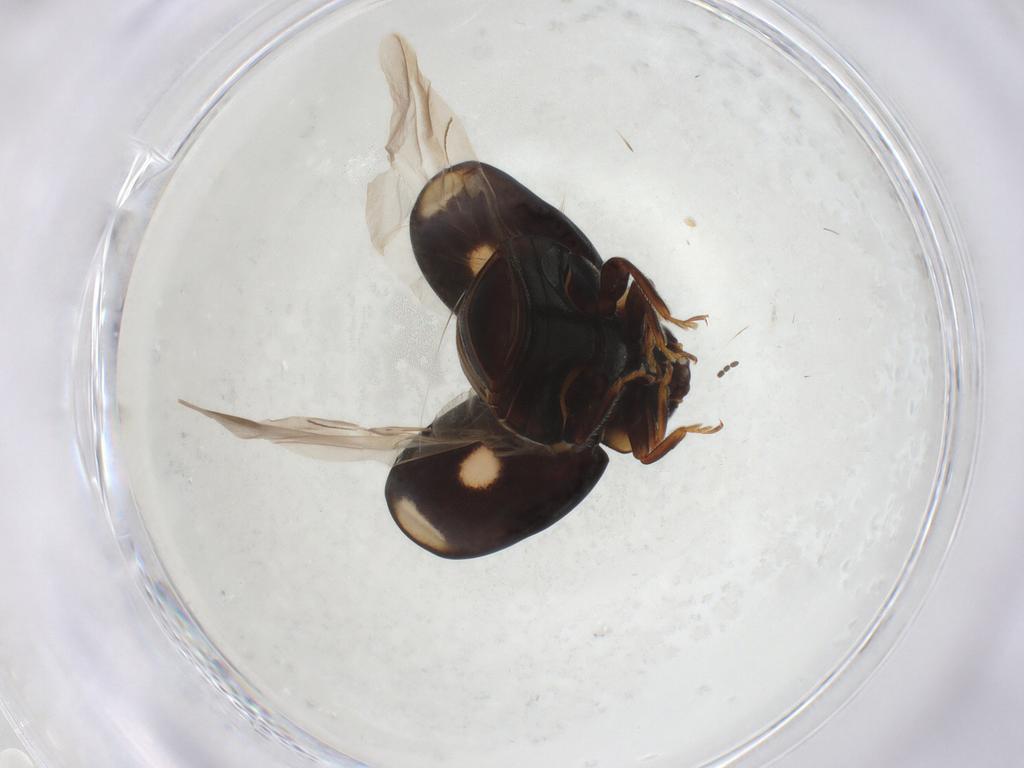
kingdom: Animalia
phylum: Arthropoda
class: Insecta
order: Coleoptera
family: Coccinellidae
